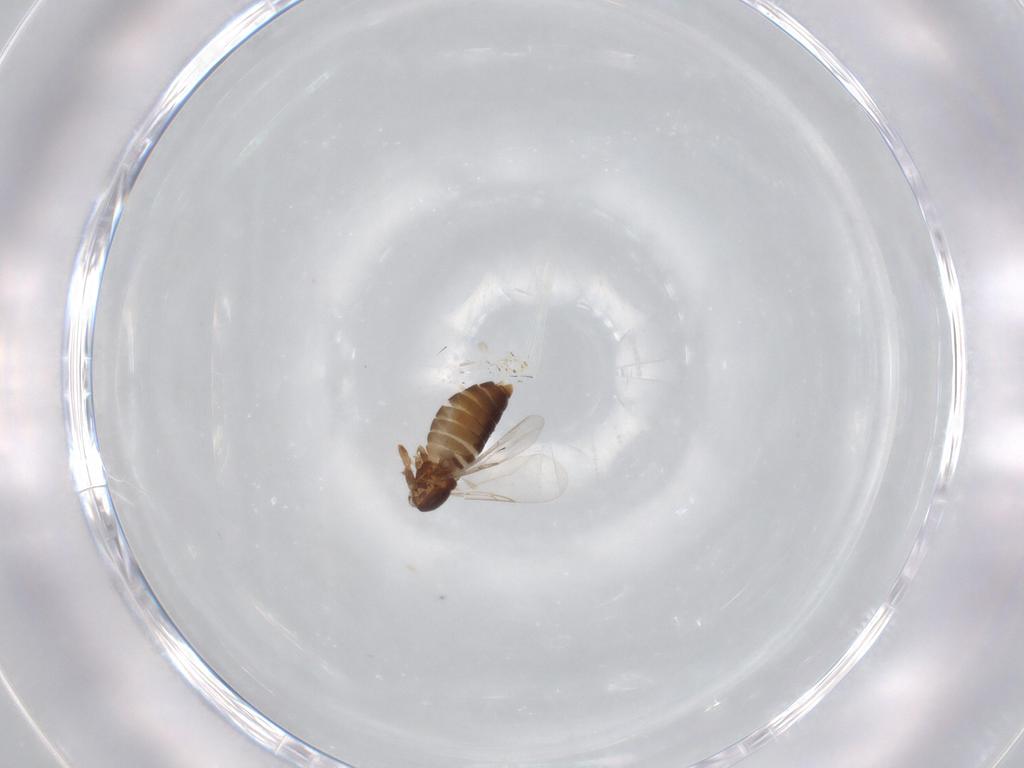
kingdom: Animalia
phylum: Arthropoda
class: Insecta
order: Diptera
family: Phoridae
